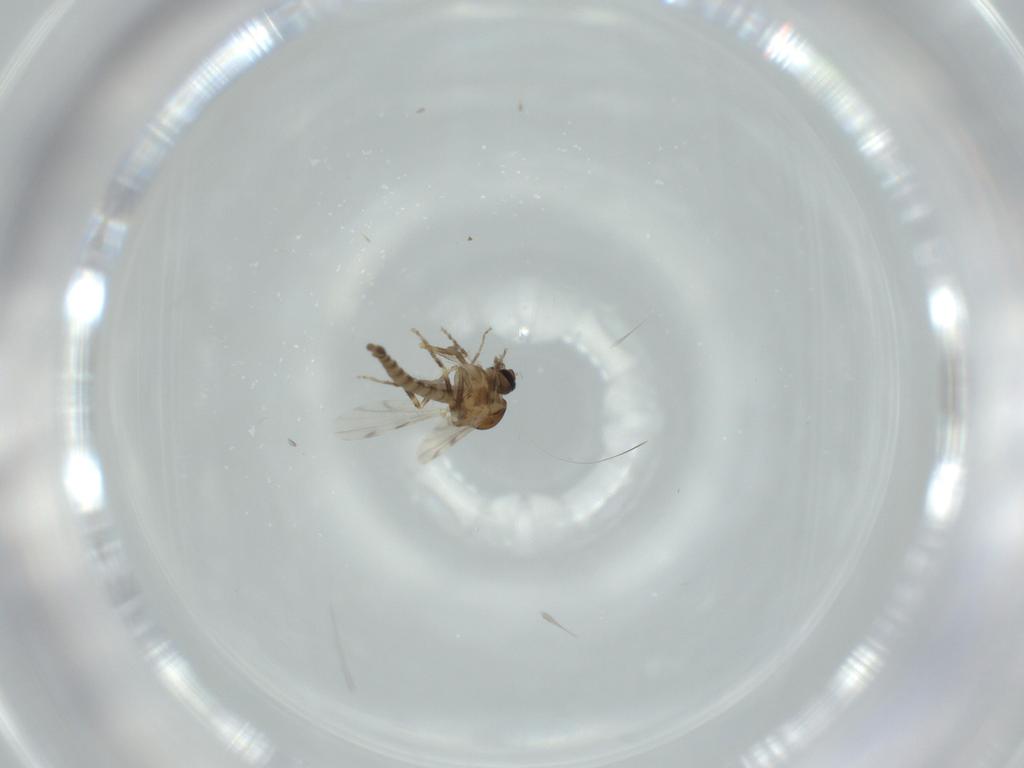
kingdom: Animalia
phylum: Arthropoda
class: Insecta
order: Diptera
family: Ceratopogonidae
